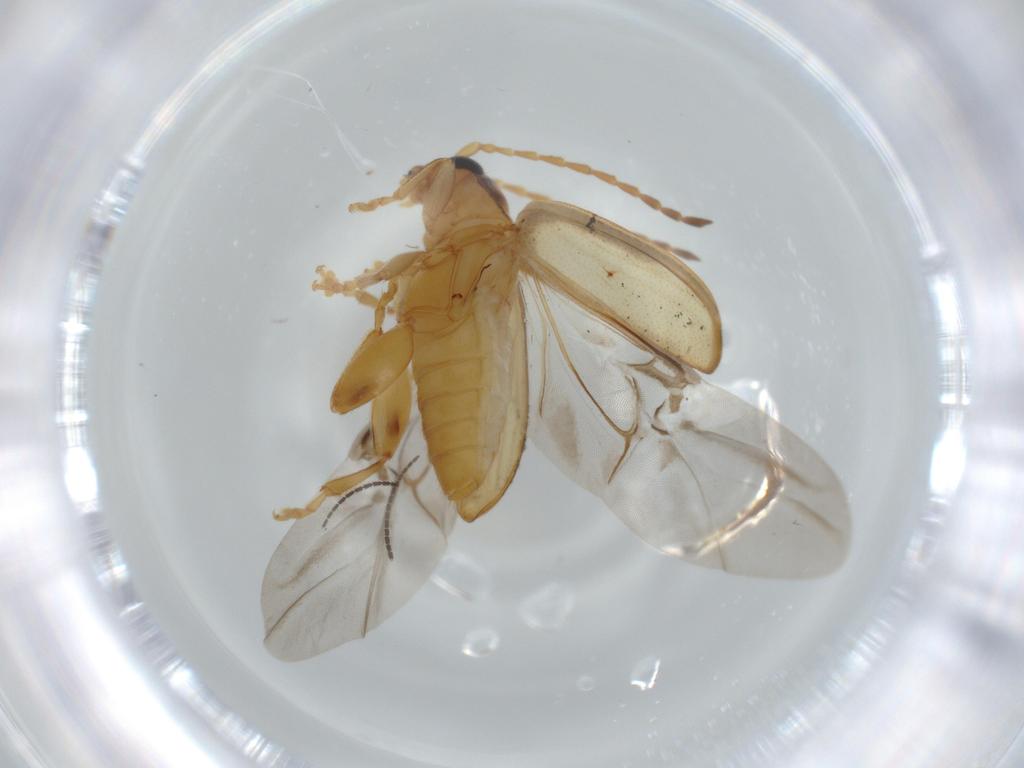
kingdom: Animalia
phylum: Arthropoda
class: Insecta
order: Coleoptera
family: Chrysomelidae
